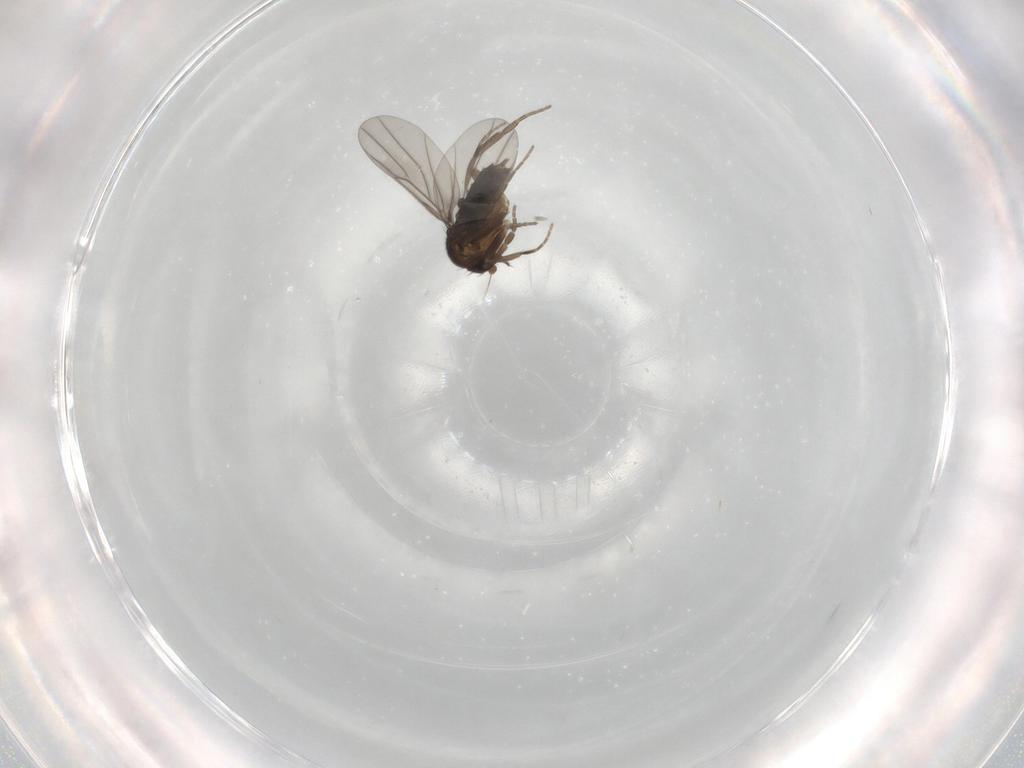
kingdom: Animalia
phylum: Arthropoda
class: Insecta
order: Diptera
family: Phoridae
